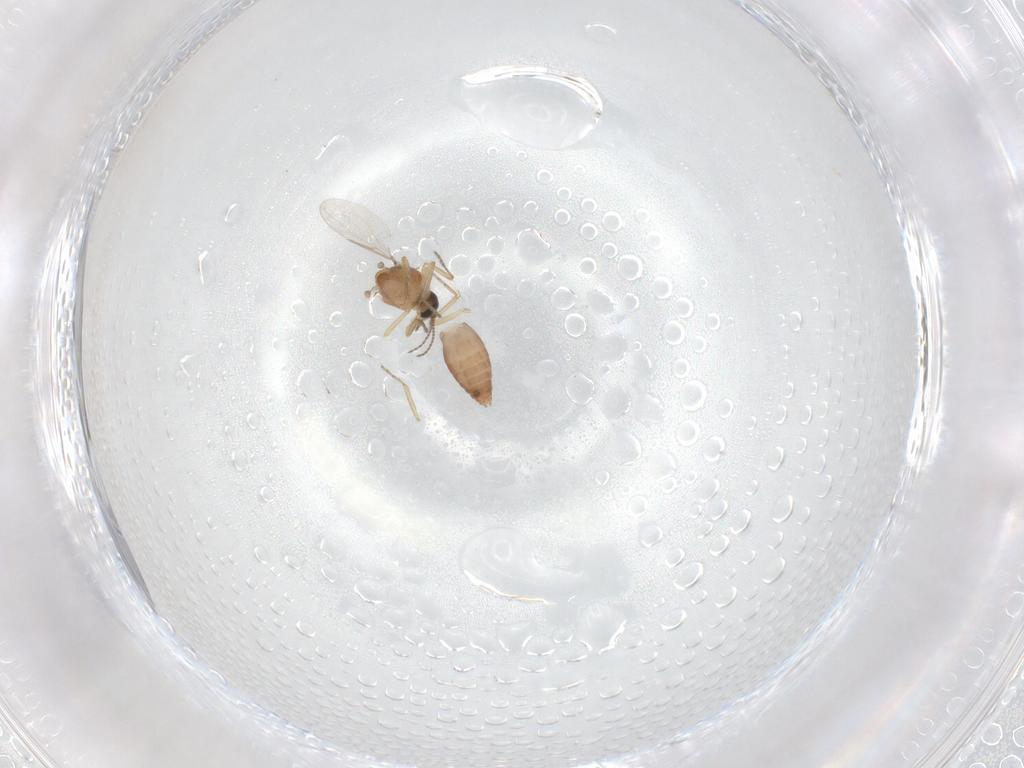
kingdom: Animalia
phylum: Arthropoda
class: Insecta
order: Diptera
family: Ceratopogonidae
